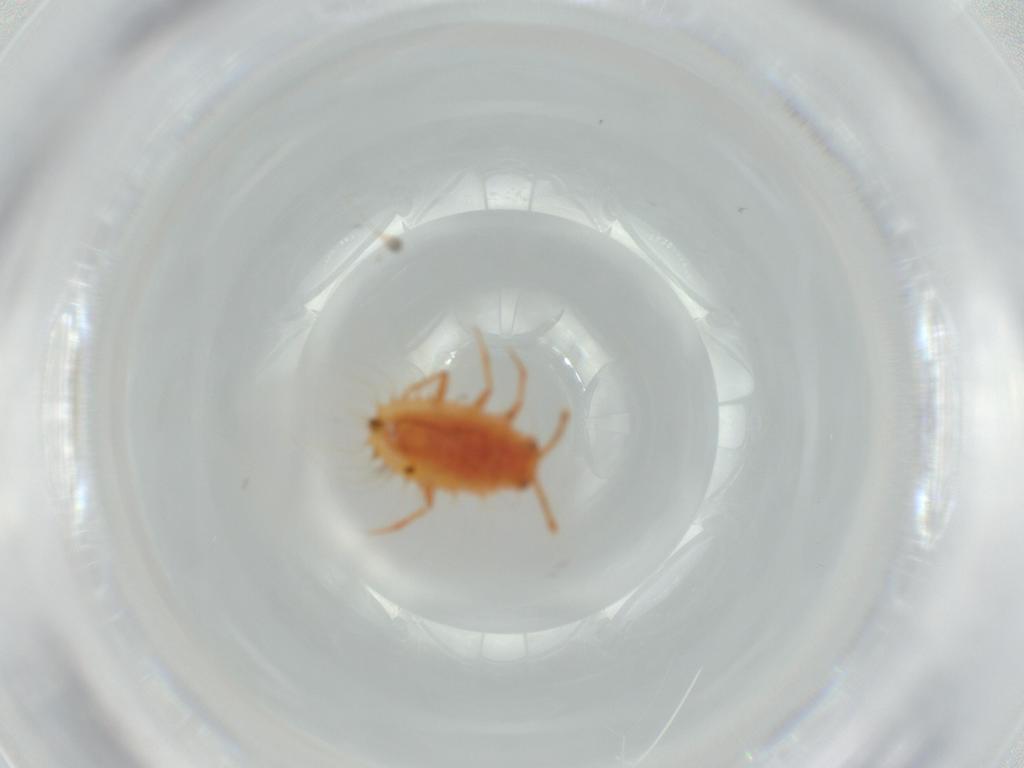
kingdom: Animalia
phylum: Arthropoda
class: Insecta
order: Hemiptera
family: Coccoidea_incertae_sedis
